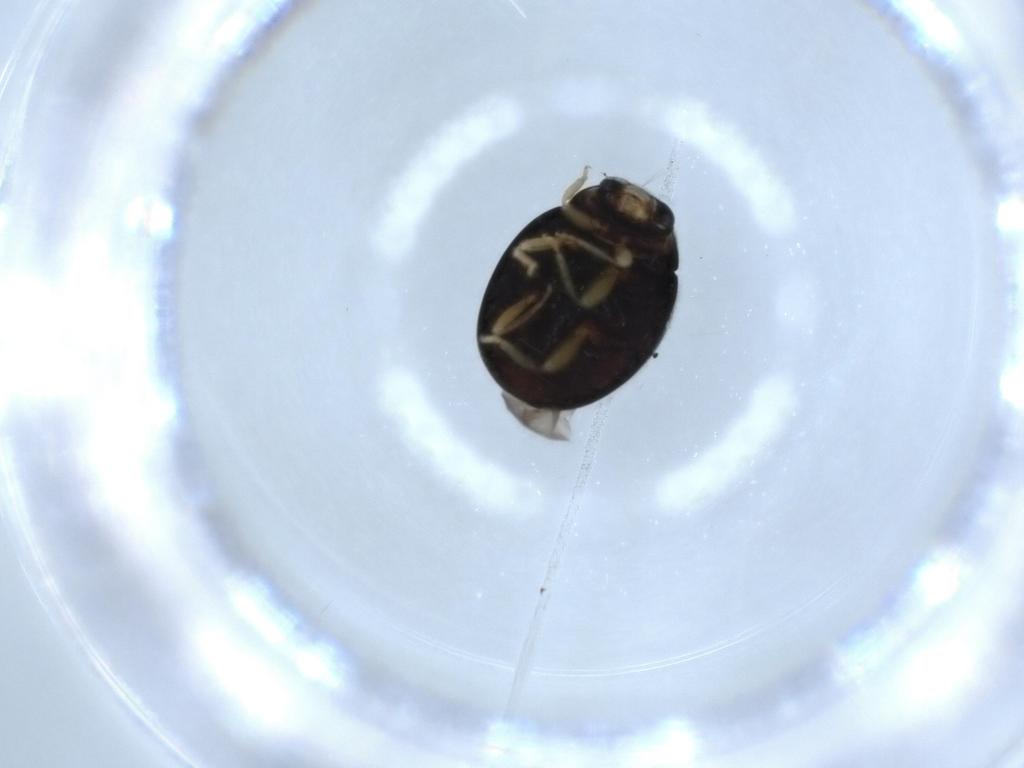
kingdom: Animalia
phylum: Arthropoda
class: Insecta
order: Coleoptera
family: Coccinellidae
